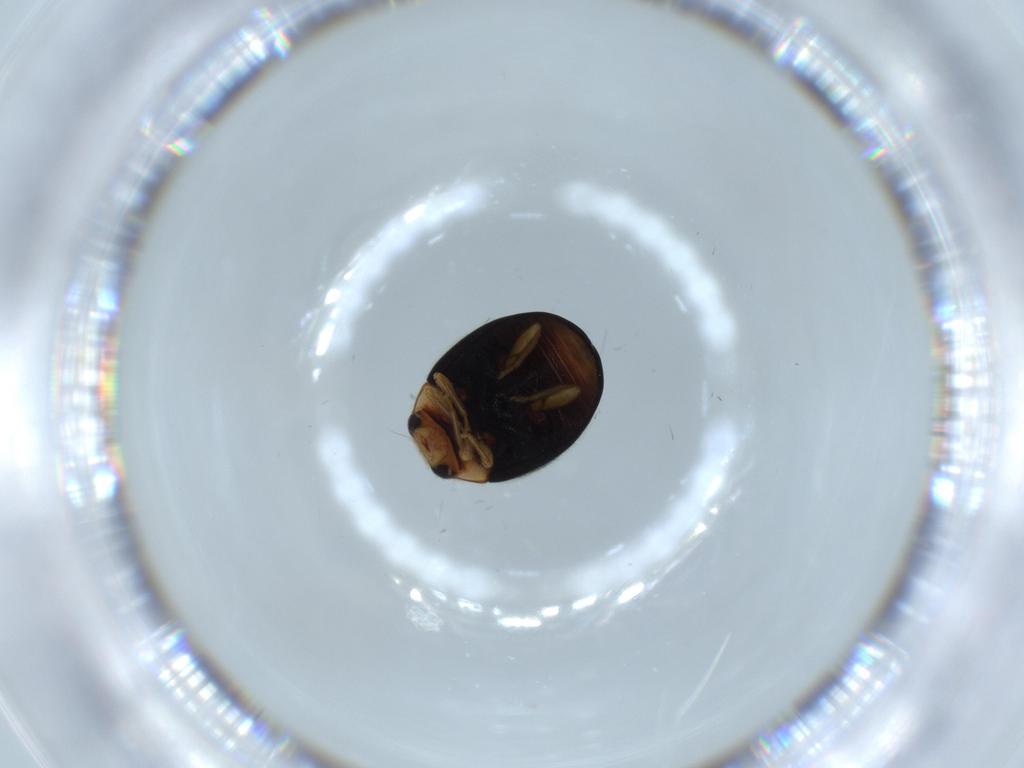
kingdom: Animalia
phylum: Arthropoda
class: Insecta
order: Coleoptera
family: Coccinellidae
